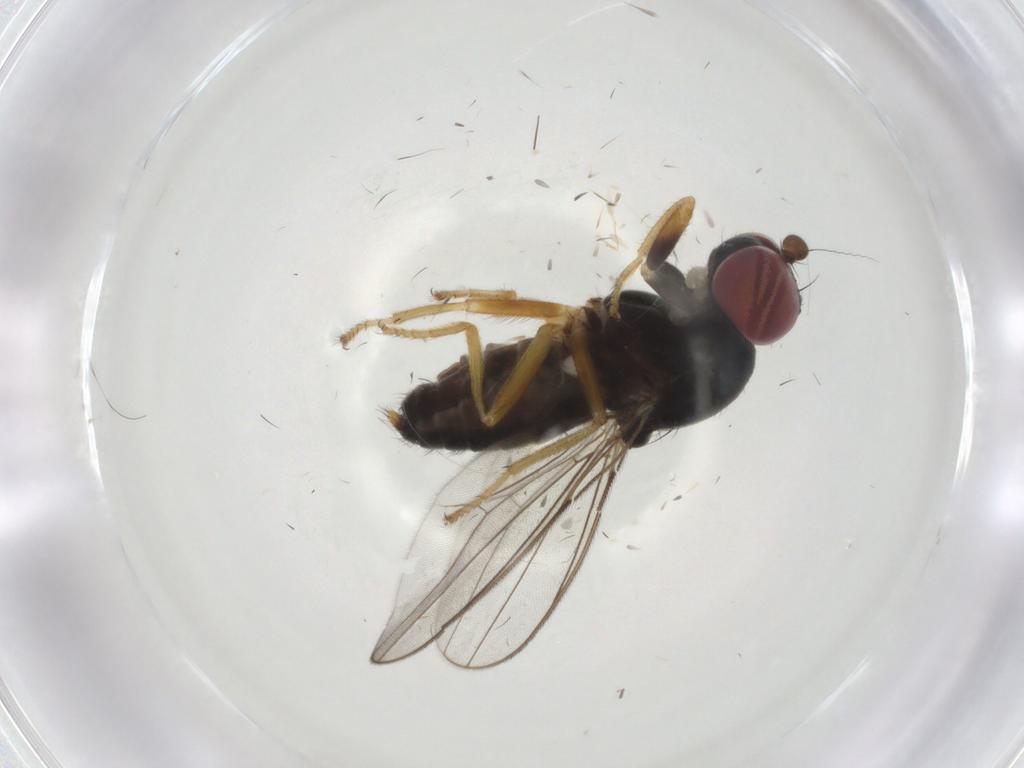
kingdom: Animalia
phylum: Arthropoda
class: Insecta
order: Diptera
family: Aulacigastridae
